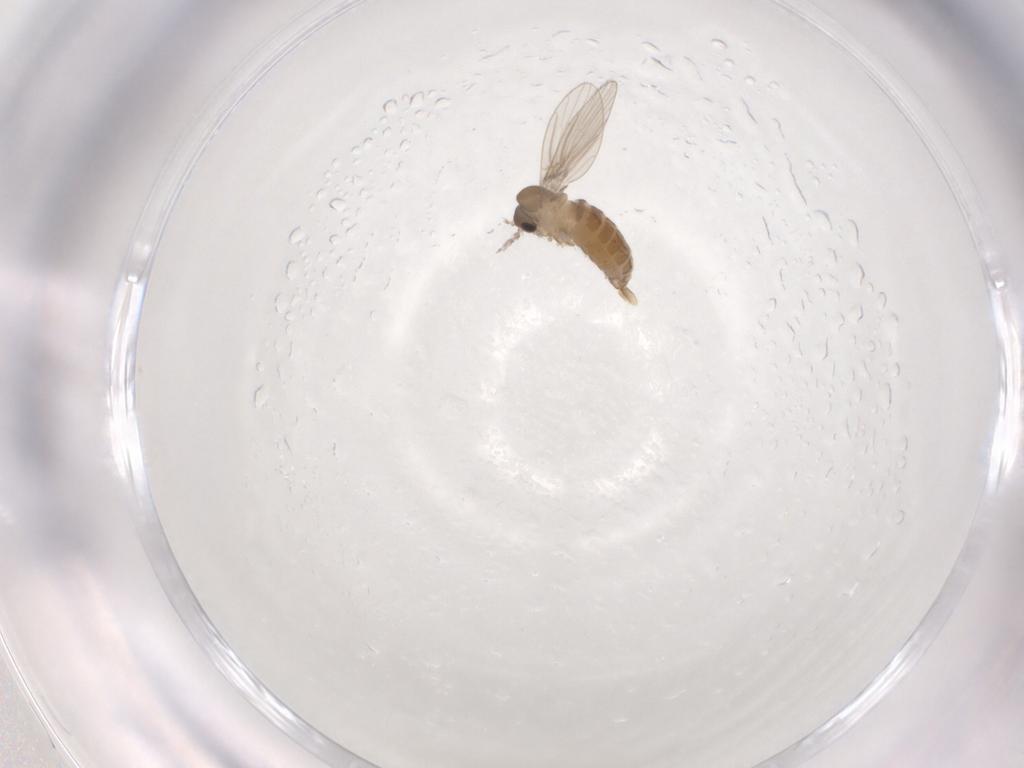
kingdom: Animalia
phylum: Arthropoda
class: Insecta
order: Diptera
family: Psychodidae
